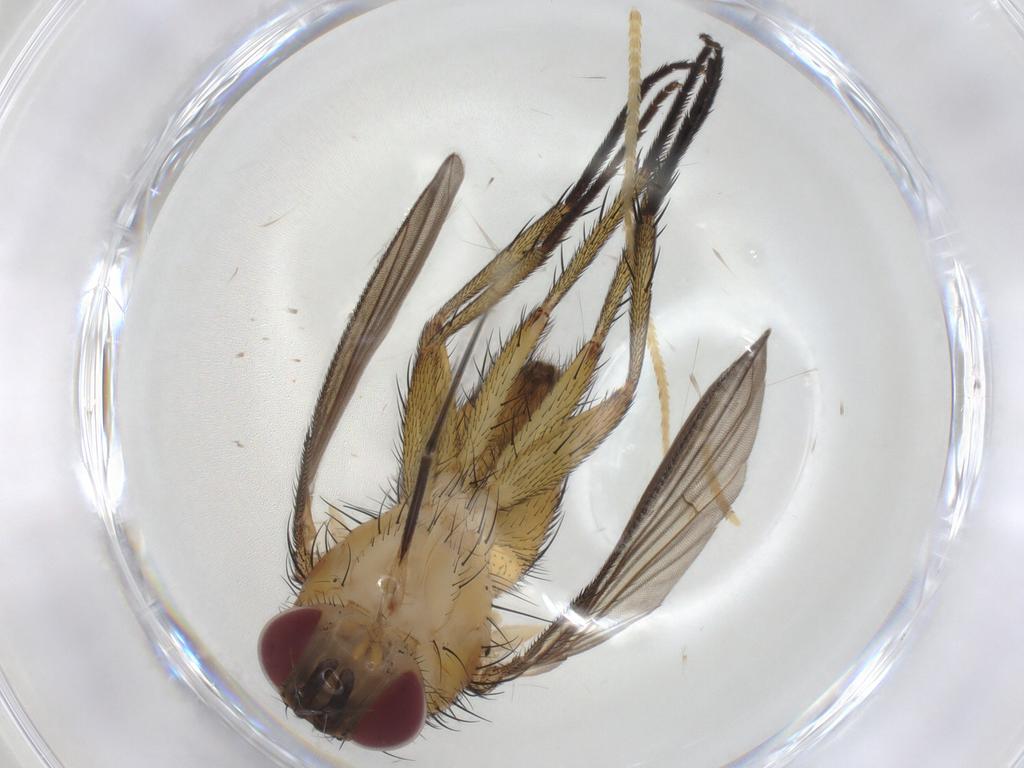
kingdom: Animalia
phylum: Arthropoda
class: Insecta
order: Diptera
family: Tachinidae
